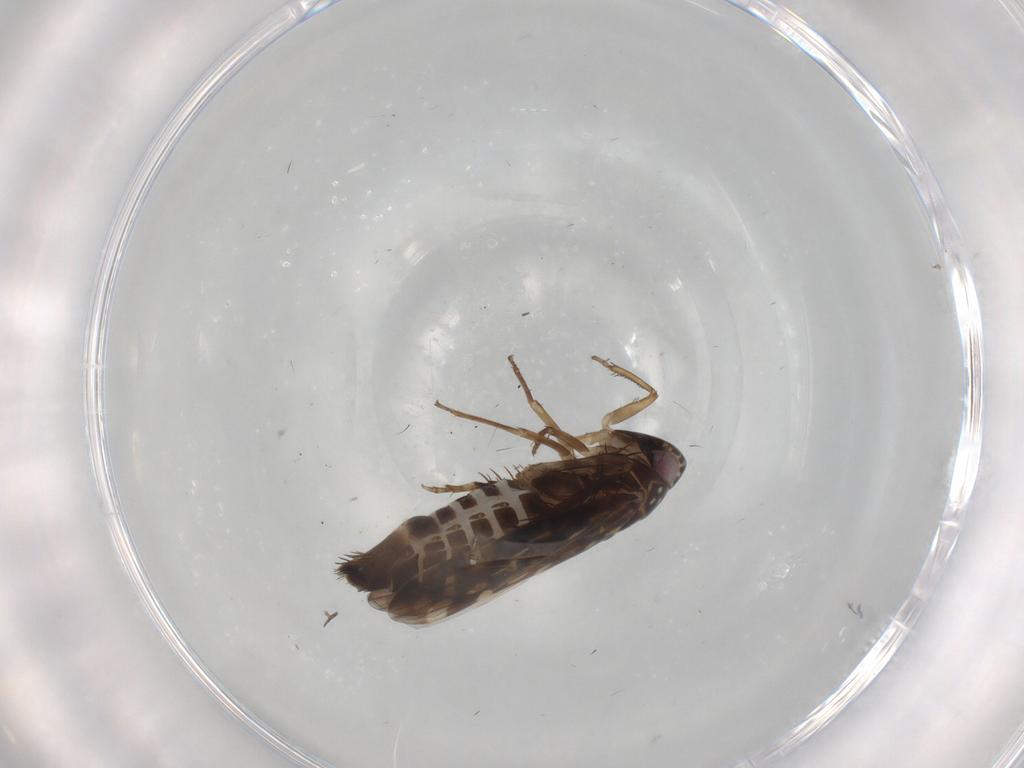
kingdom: Animalia
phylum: Arthropoda
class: Insecta
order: Hemiptera
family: Cicadellidae
